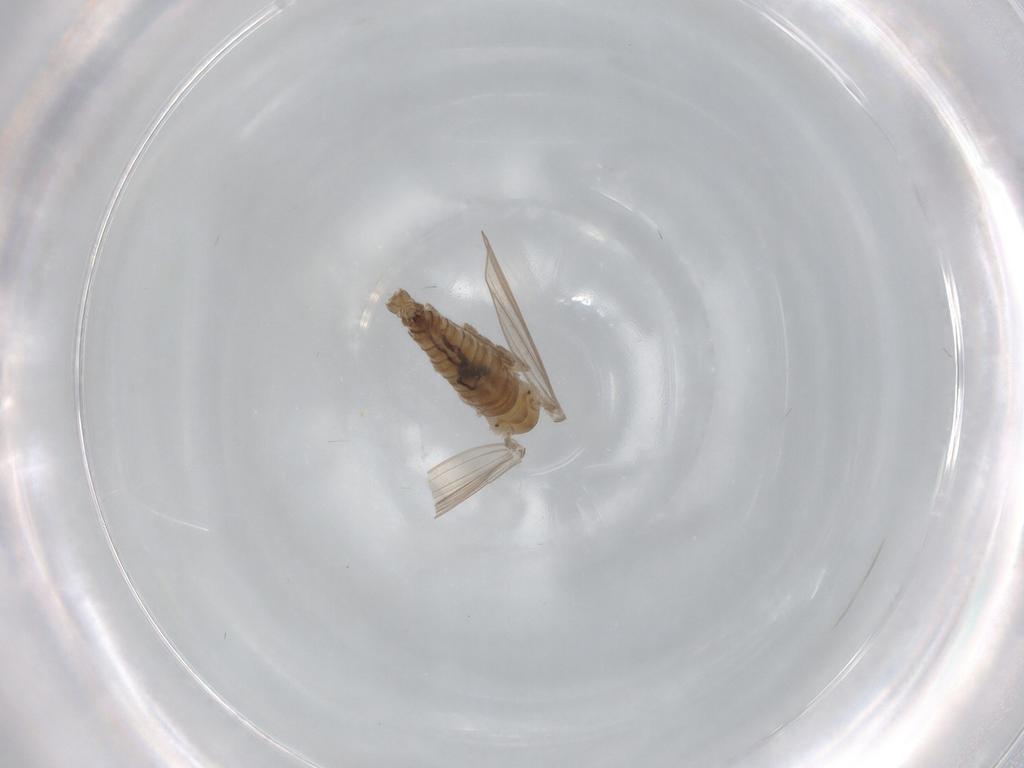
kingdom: Animalia
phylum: Arthropoda
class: Insecta
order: Diptera
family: Psychodidae
